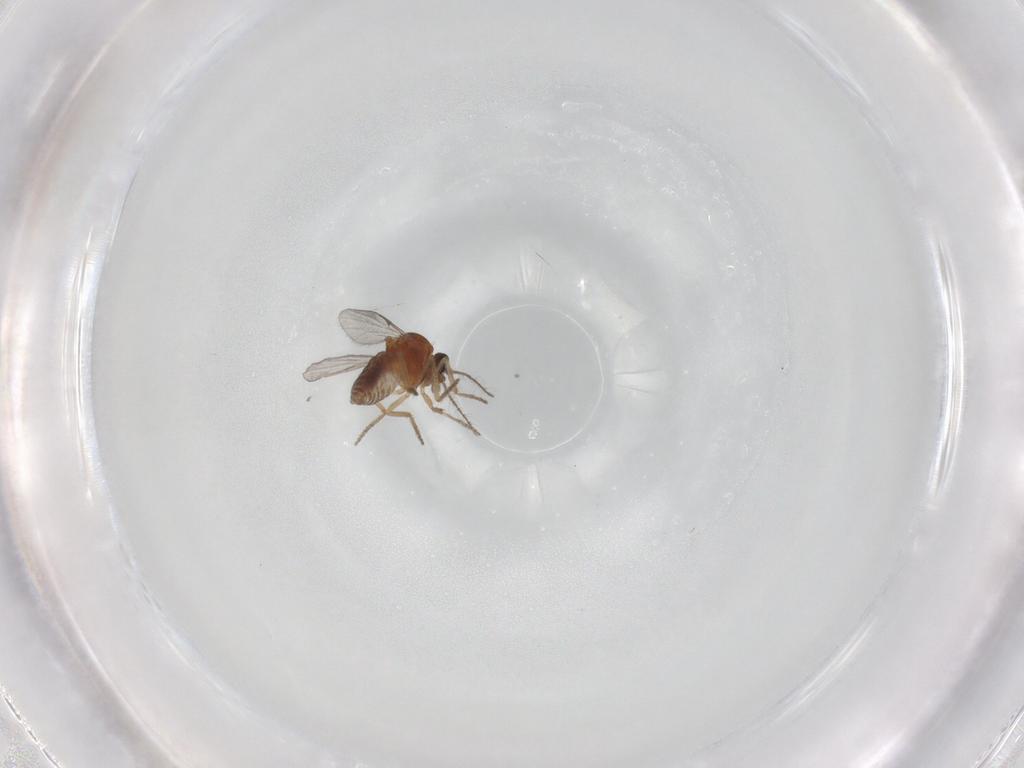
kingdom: Animalia
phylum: Arthropoda
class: Insecta
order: Diptera
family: Ceratopogonidae
